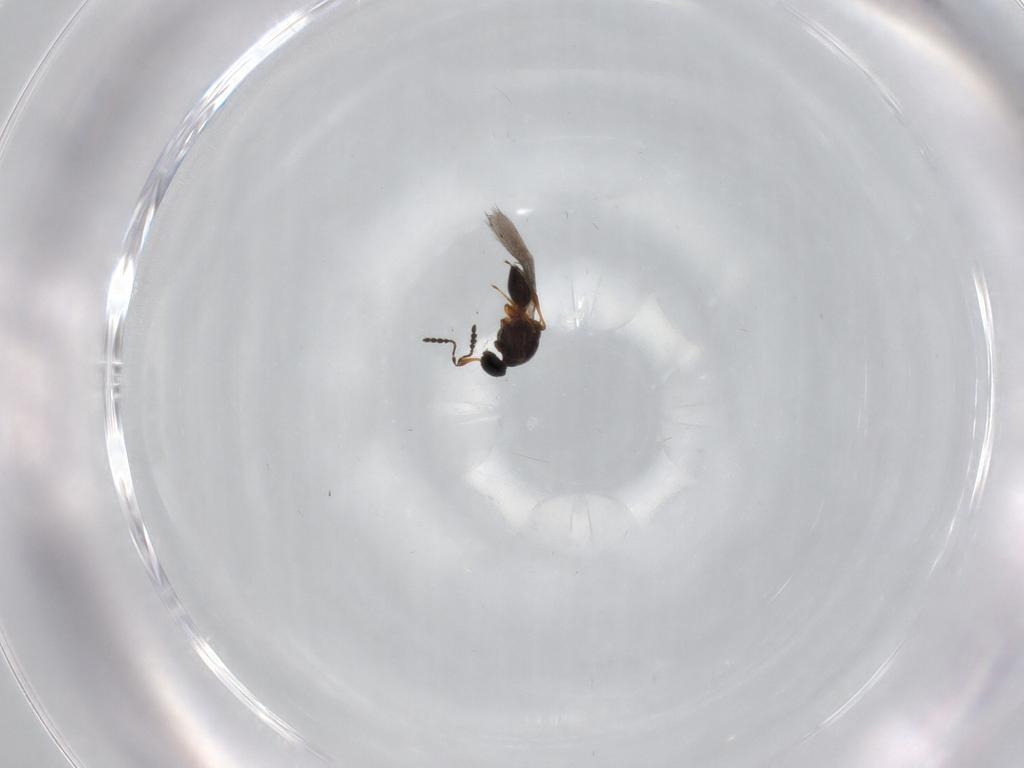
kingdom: Animalia
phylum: Arthropoda
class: Insecta
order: Hymenoptera
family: Platygastridae
